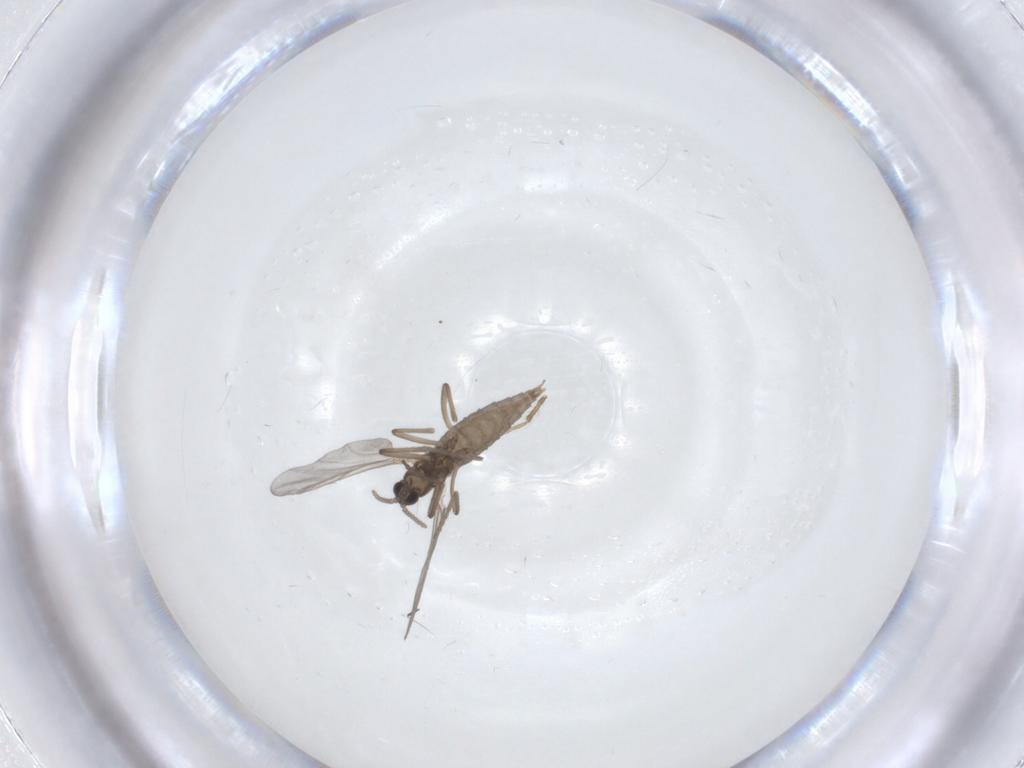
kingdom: Animalia
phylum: Arthropoda
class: Insecta
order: Diptera
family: Cecidomyiidae
